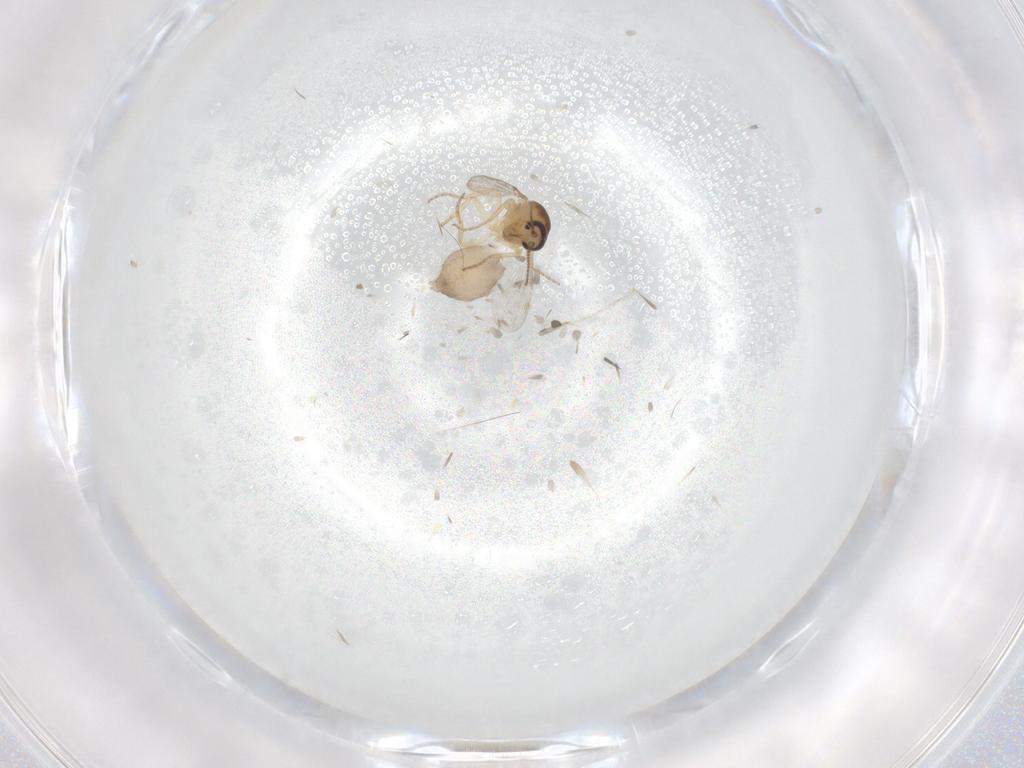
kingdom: Animalia
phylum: Arthropoda
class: Insecta
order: Diptera
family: Ceratopogonidae
